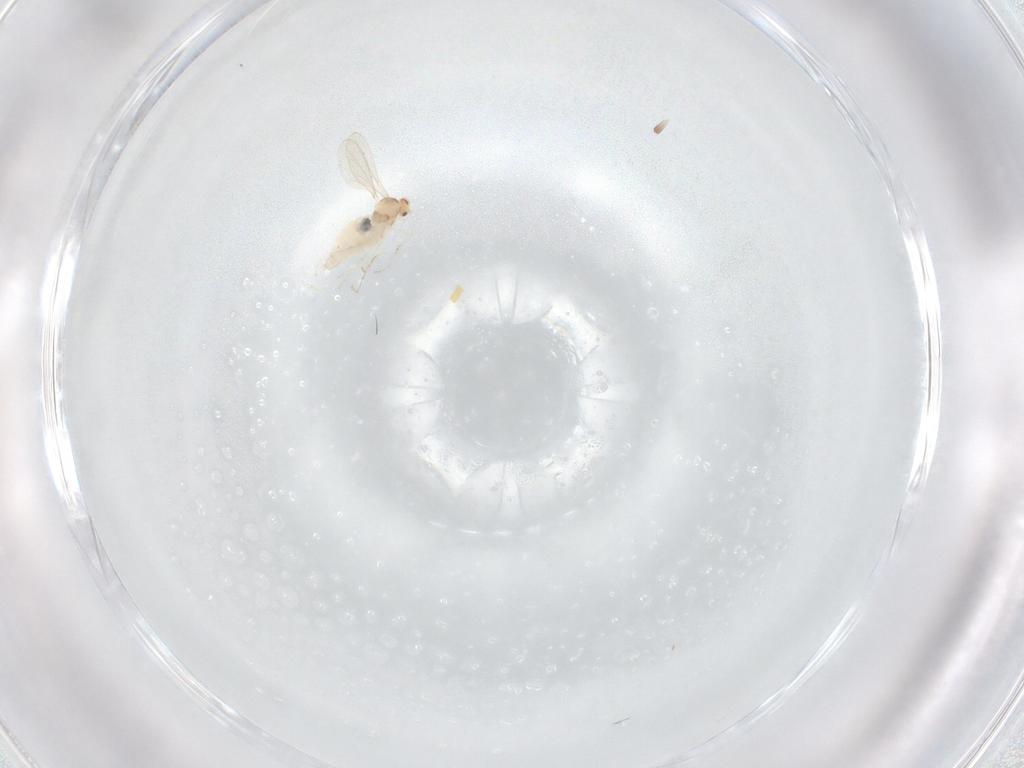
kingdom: Animalia
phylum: Arthropoda
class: Insecta
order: Diptera
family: Cecidomyiidae
